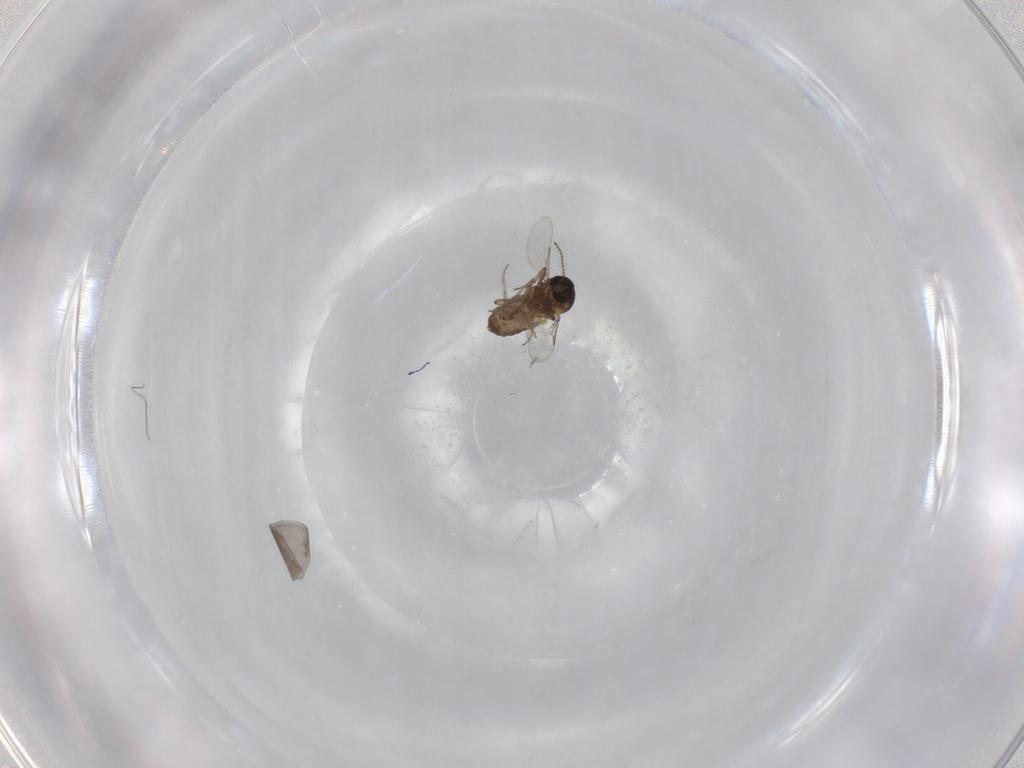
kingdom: Animalia
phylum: Arthropoda
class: Insecta
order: Diptera
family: Ceratopogonidae
